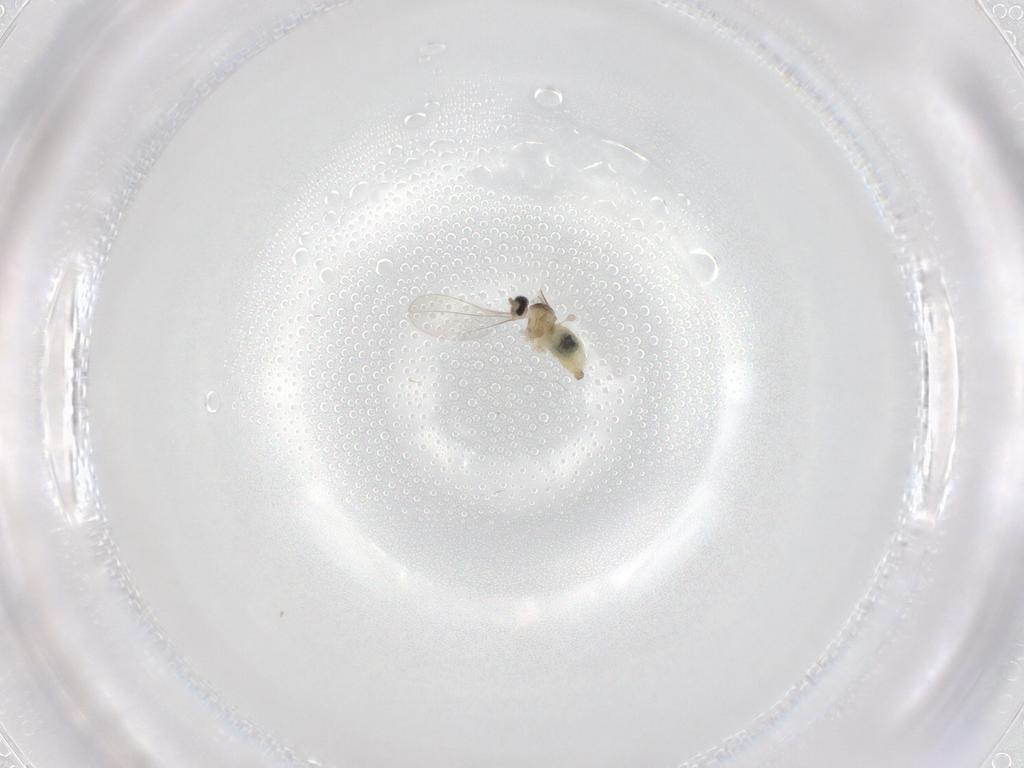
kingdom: Animalia
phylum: Arthropoda
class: Insecta
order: Diptera
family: Cecidomyiidae
